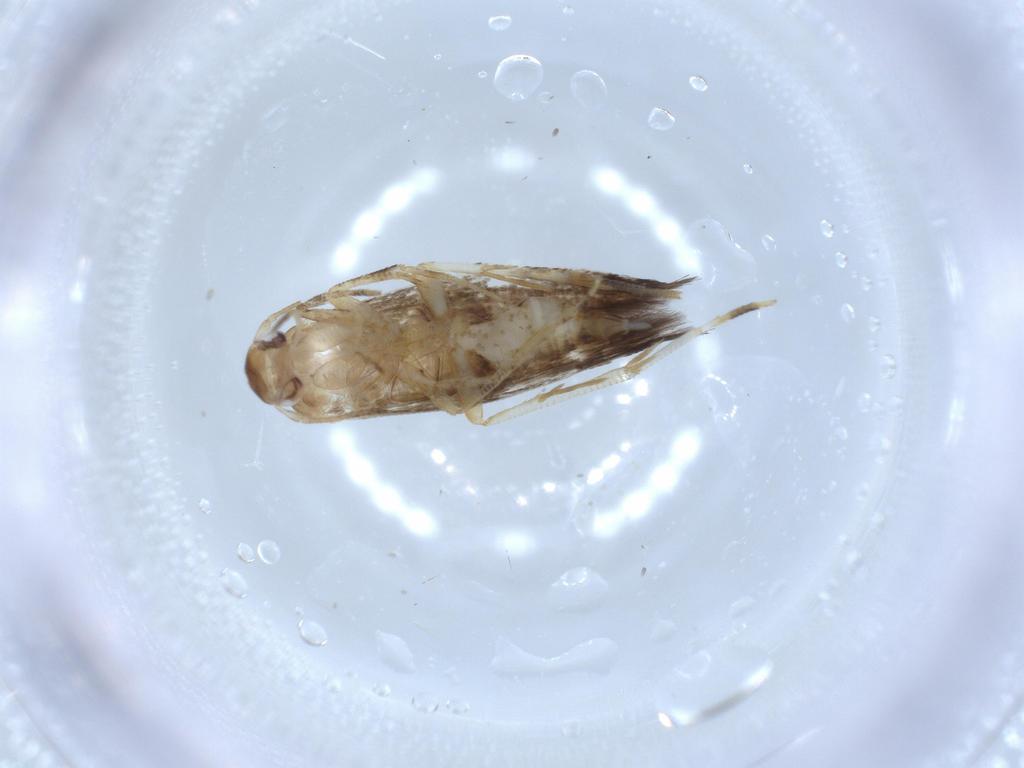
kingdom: Animalia
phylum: Arthropoda
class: Insecta
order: Lepidoptera
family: Momphidae
